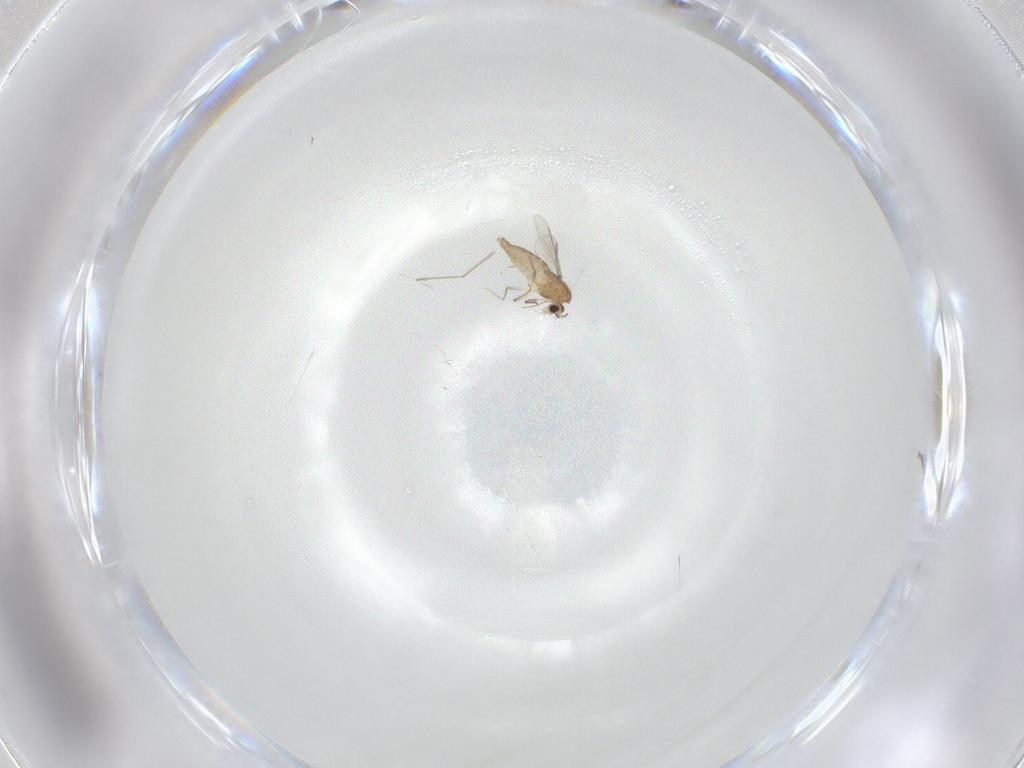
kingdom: Animalia
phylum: Arthropoda
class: Insecta
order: Diptera
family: Chironomidae
